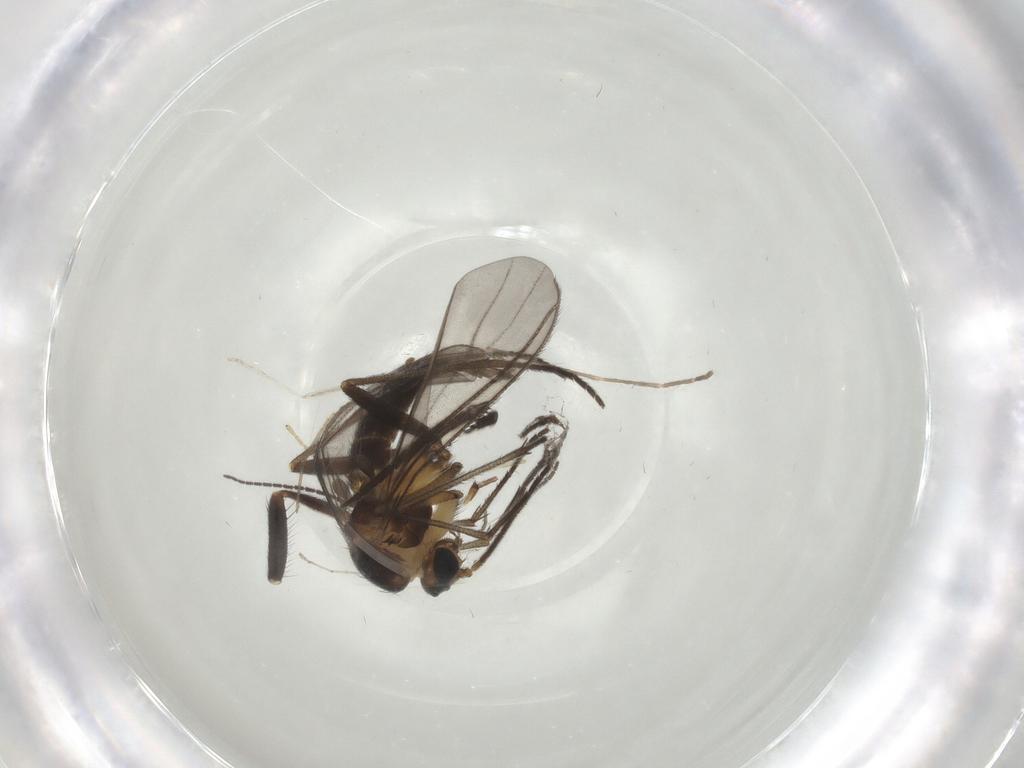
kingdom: Animalia
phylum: Arthropoda
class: Insecta
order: Diptera
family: Sciaridae
